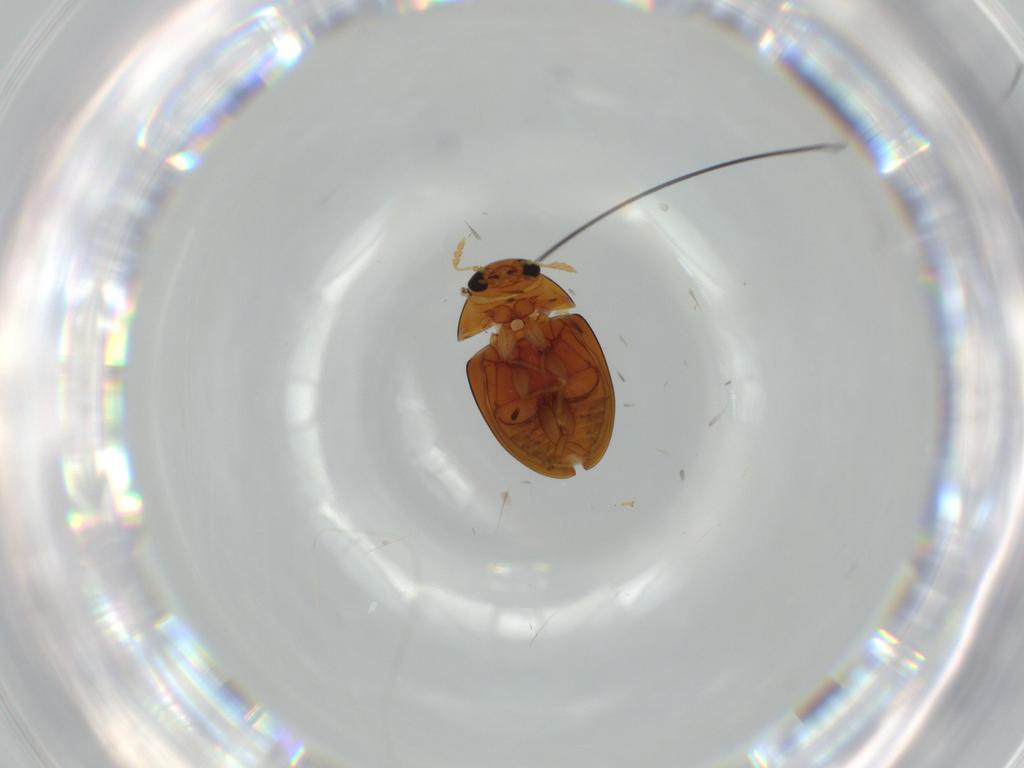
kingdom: Animalia
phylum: Arthropoda
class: Insecta
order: Coleoptera
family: Phalacridae
